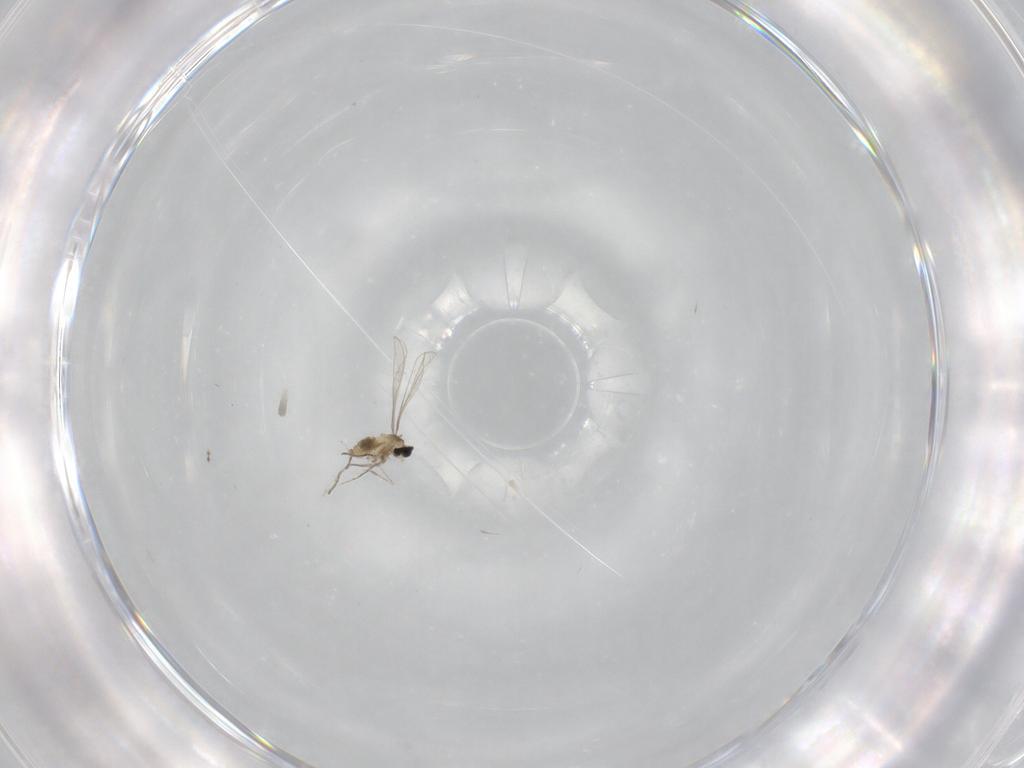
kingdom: Animalia
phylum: Arthropoda
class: Insecta
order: Diptera
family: Cecidomyiidae
